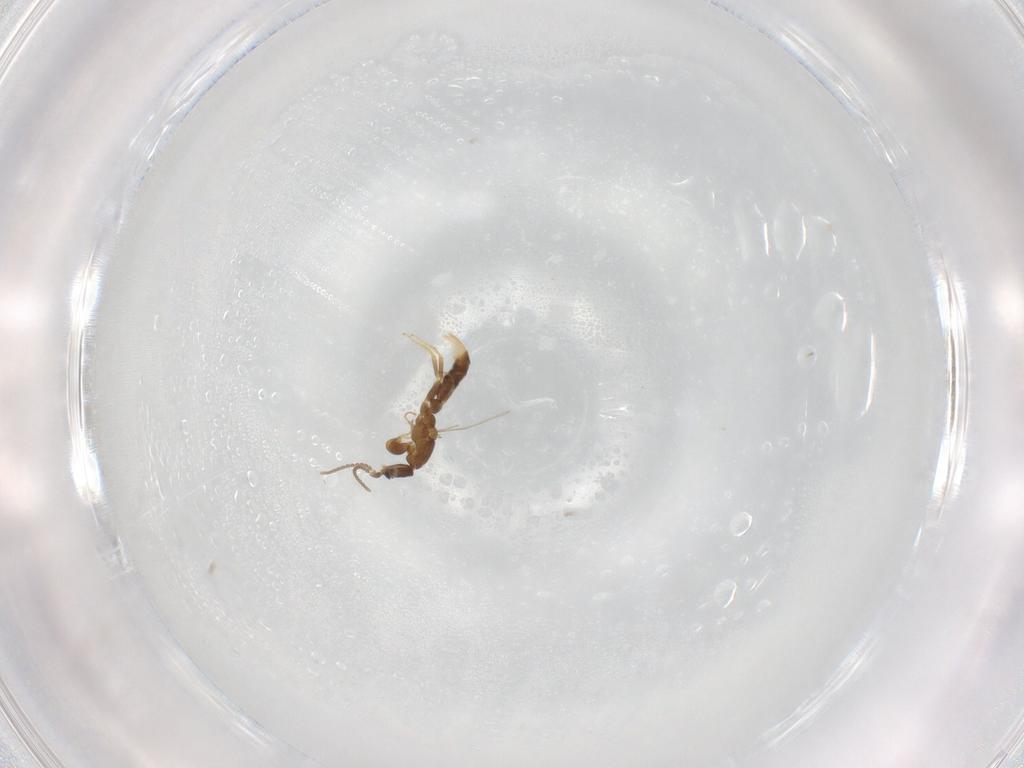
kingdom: Animalia
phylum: Arthropoda
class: Insecta
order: Hymenoptera
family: Formicidae
